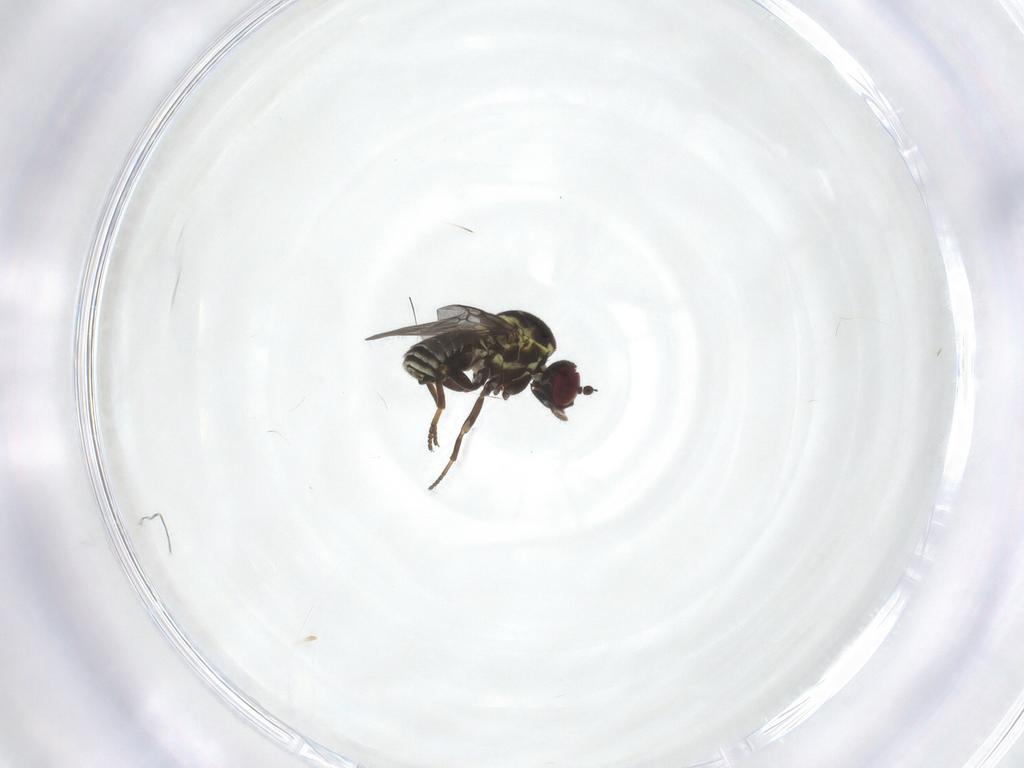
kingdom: Animalia
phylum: Arthropoda
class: Insecta
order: Diptera
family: Bombyliidae
